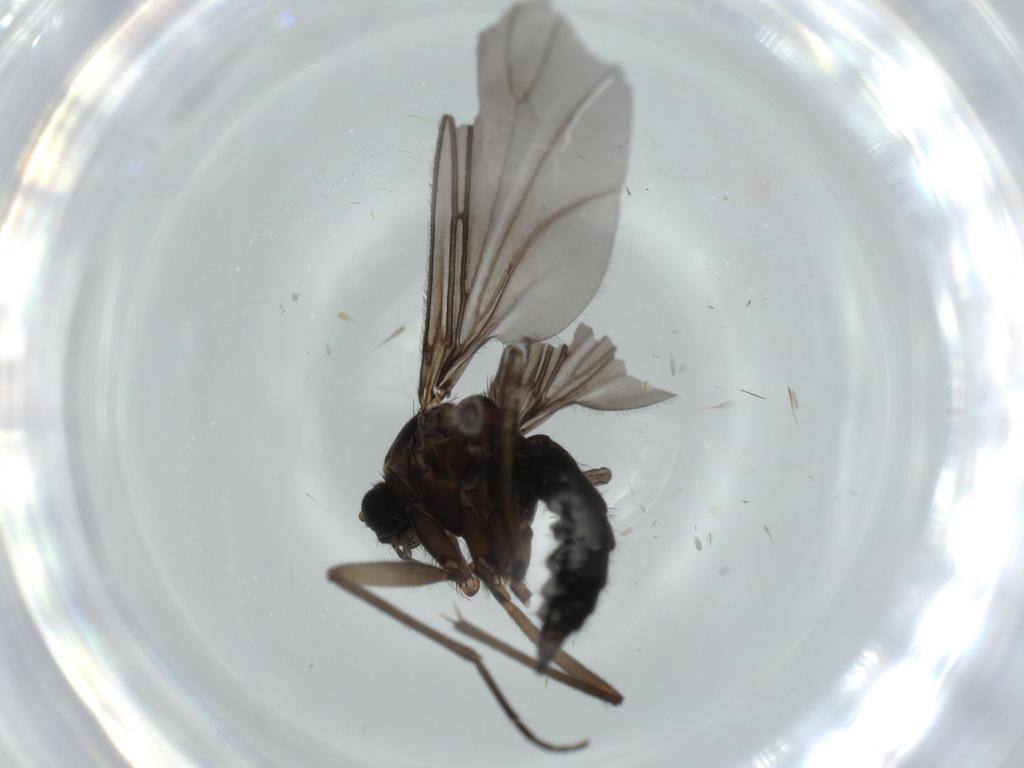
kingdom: Animalia
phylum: Arthropoda
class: Insecta
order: Diptera
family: Sciaridae
